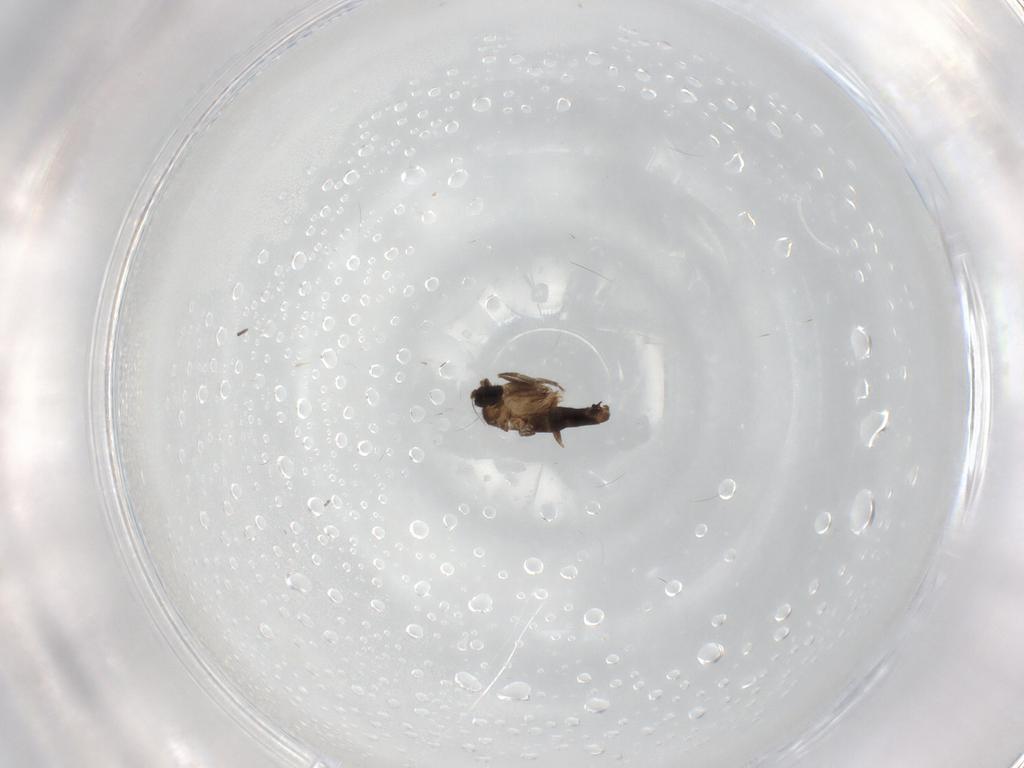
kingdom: Animalia
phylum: Arthropoda
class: Insecta
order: Diptera
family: Phoridae
